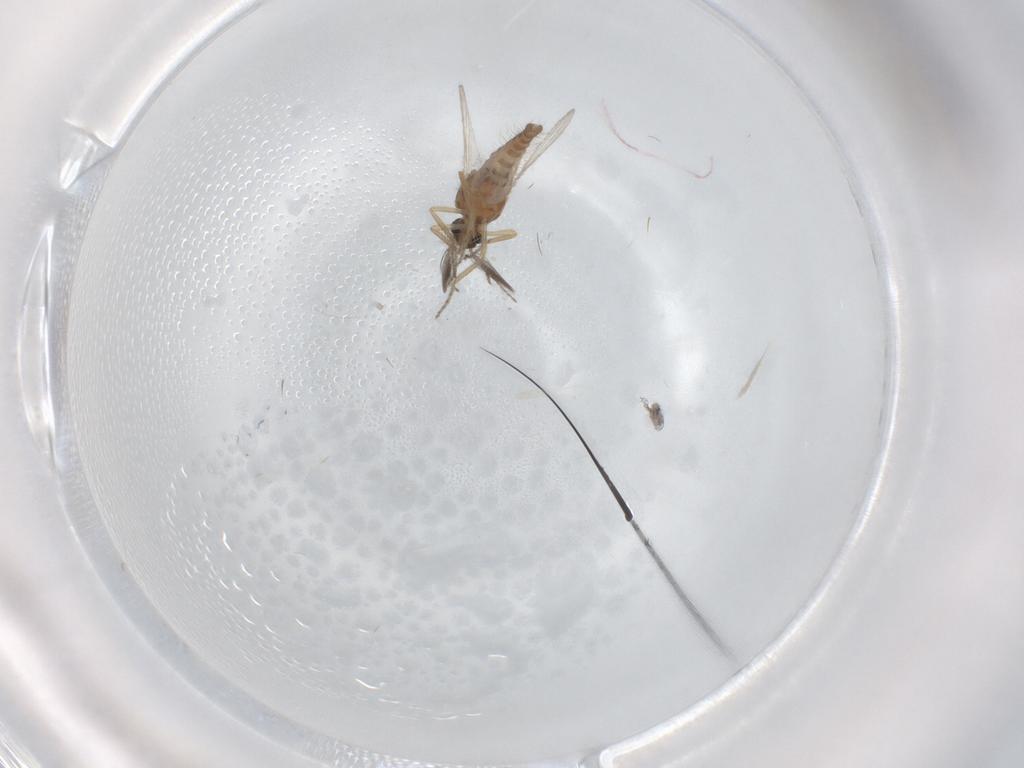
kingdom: Animalia
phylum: Arthropoda
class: Insecta
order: Diptera
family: Ceratopogonidae
